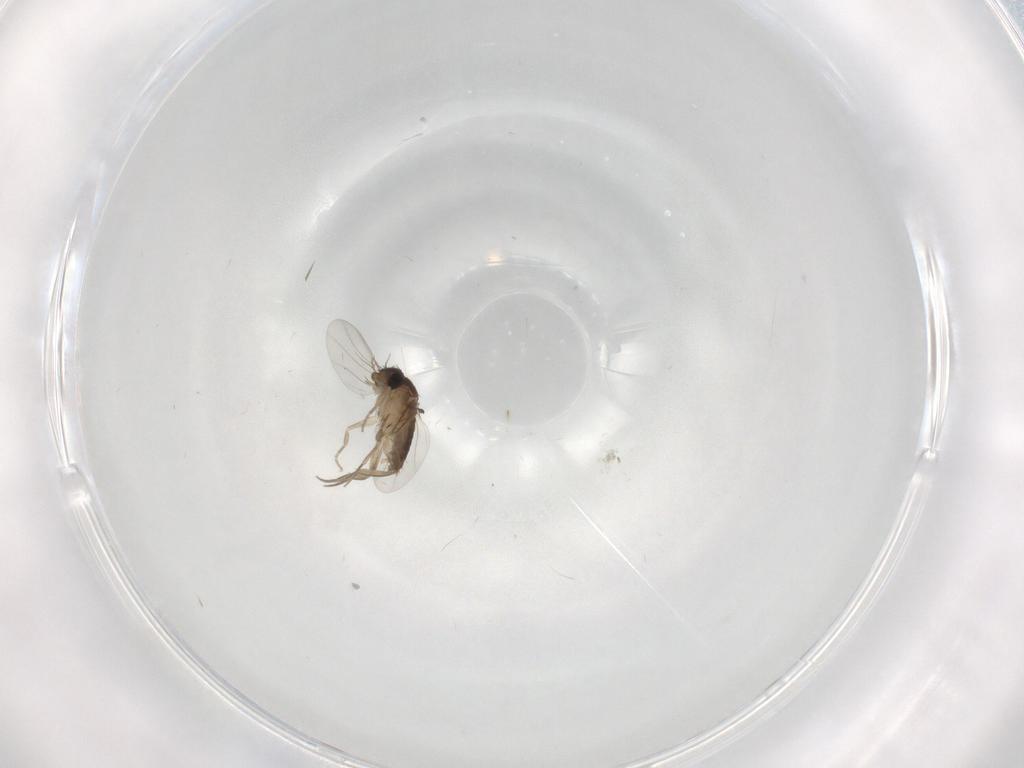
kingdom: Animalia
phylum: Arthropoda
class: Insecta
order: Diptera
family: Phoridae
